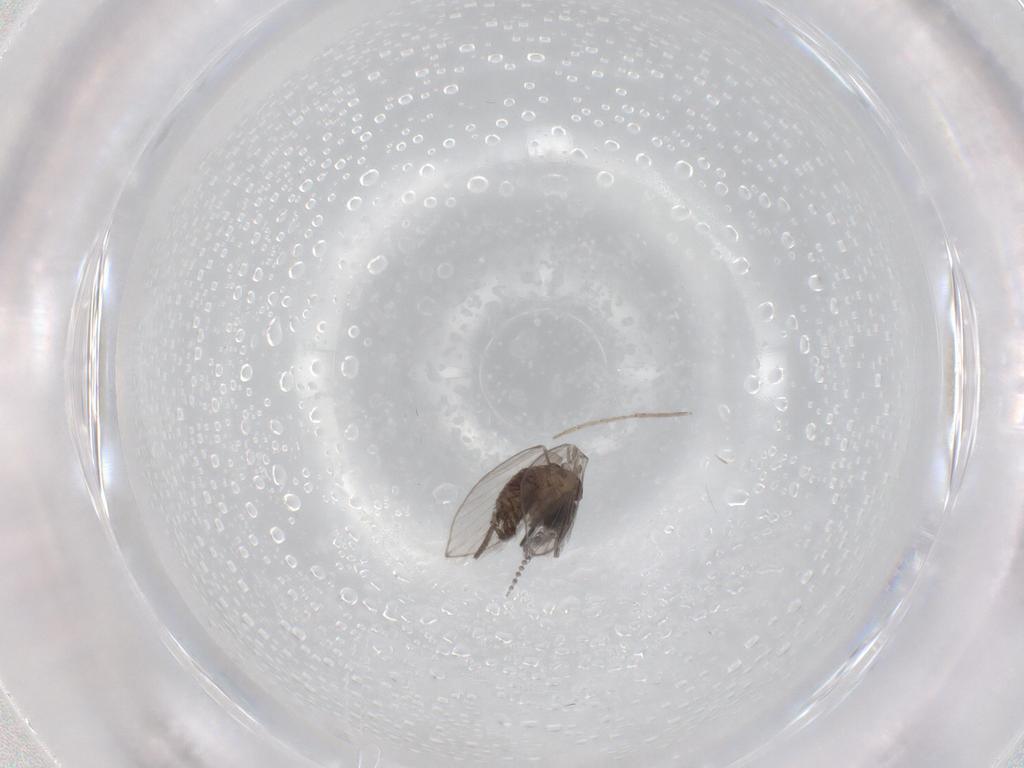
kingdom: Animalia
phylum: Arthropoda
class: Insecta
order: Diptera
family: Psychodidae
